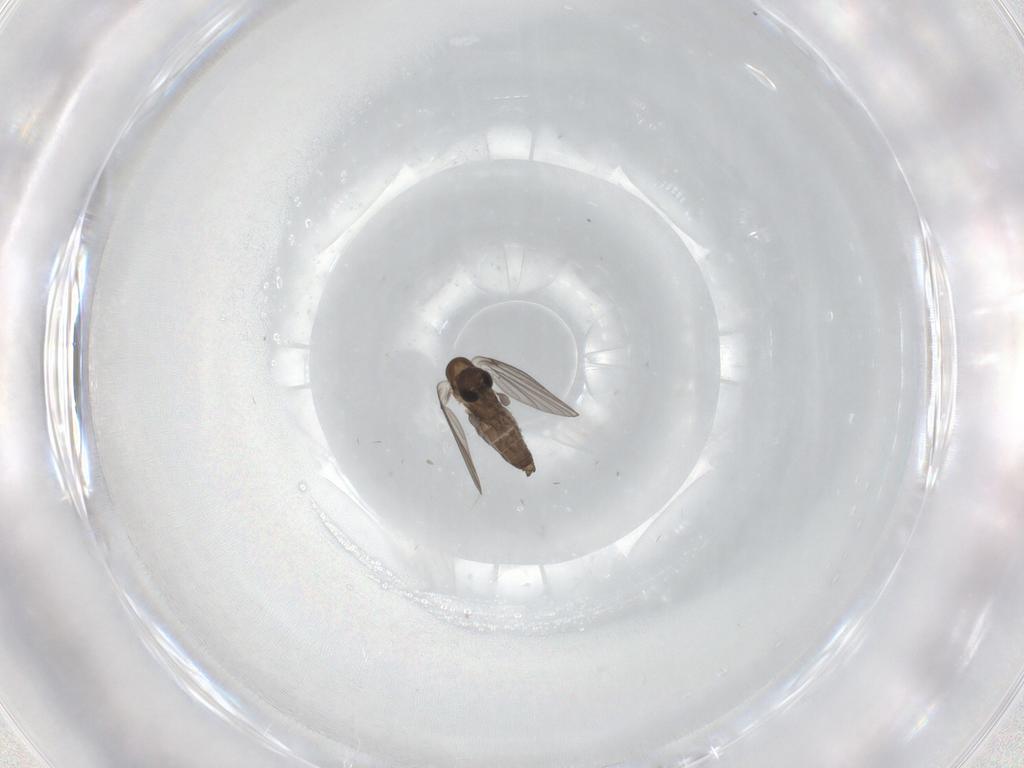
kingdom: Animalia
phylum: Arthropoda
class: Insecta
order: Diptera
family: Psychodidae
